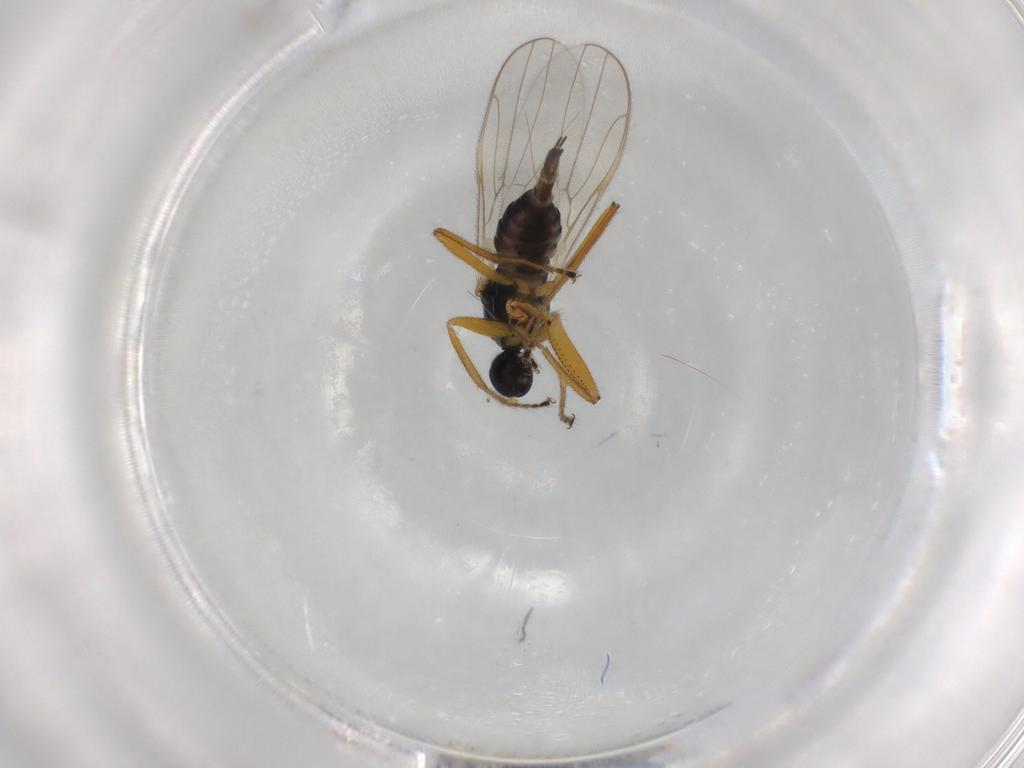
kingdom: Animalia
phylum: Arthropoda
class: Insecta
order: Diptera
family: Hybotidae
